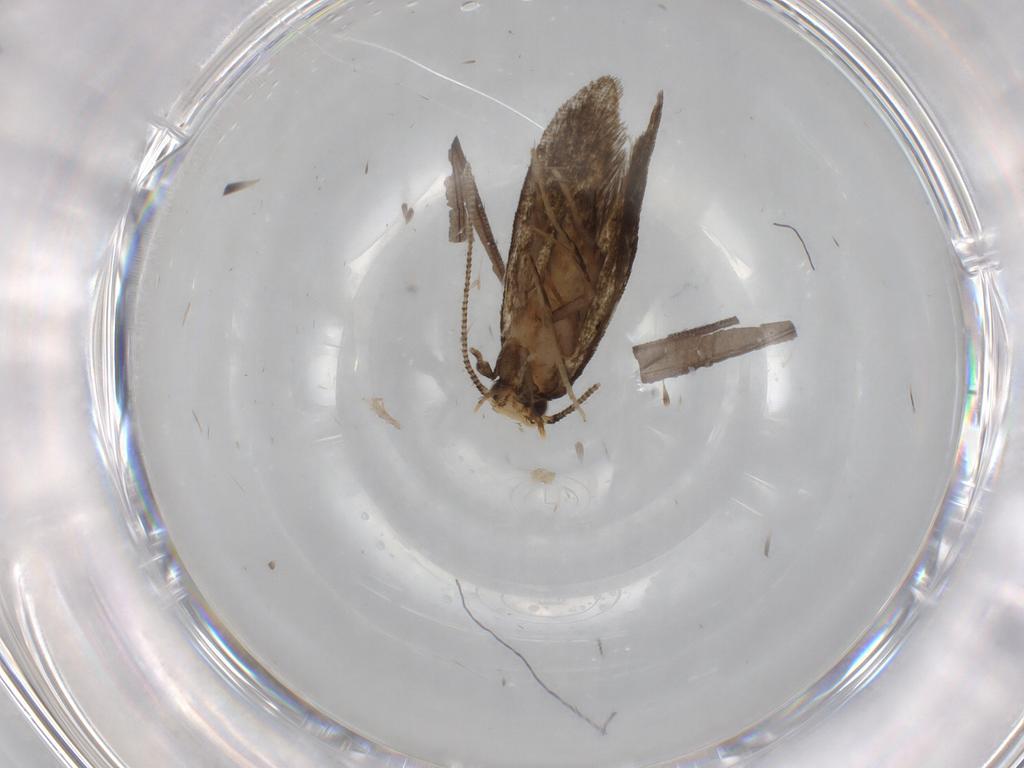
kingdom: Animalia
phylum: Arthropoda
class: Insecta
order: Lepidoptera
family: Tineidae
